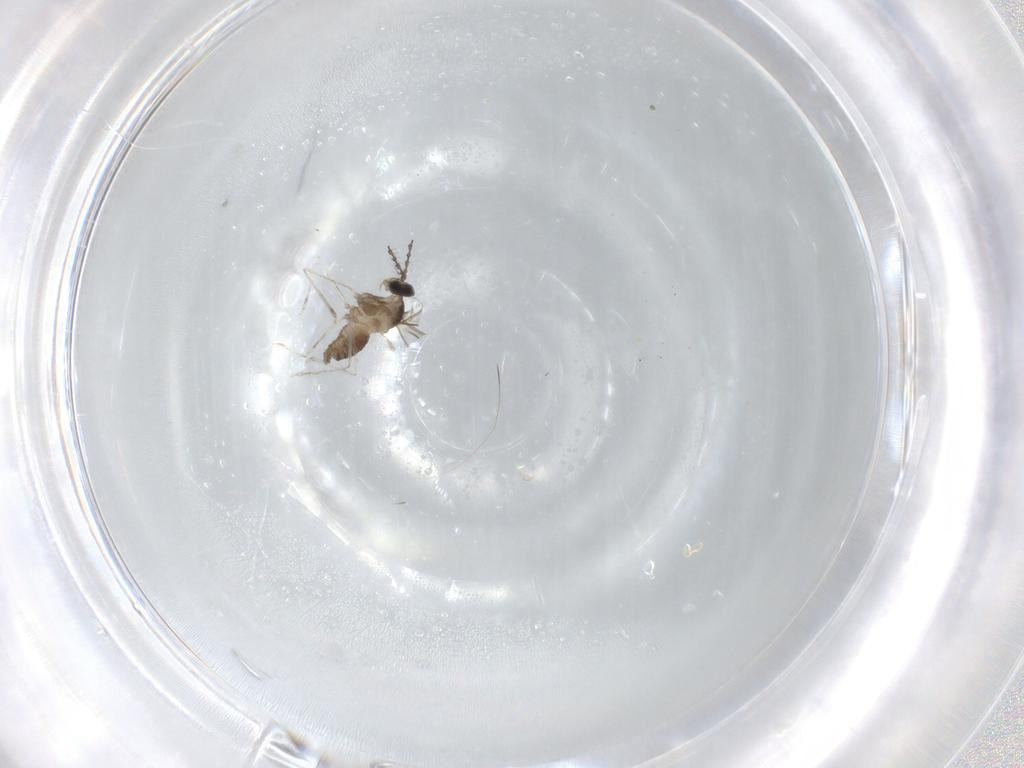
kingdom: Animalia
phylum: Arthropoda
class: Insecta
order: Diptera
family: Cecidomyiidae
